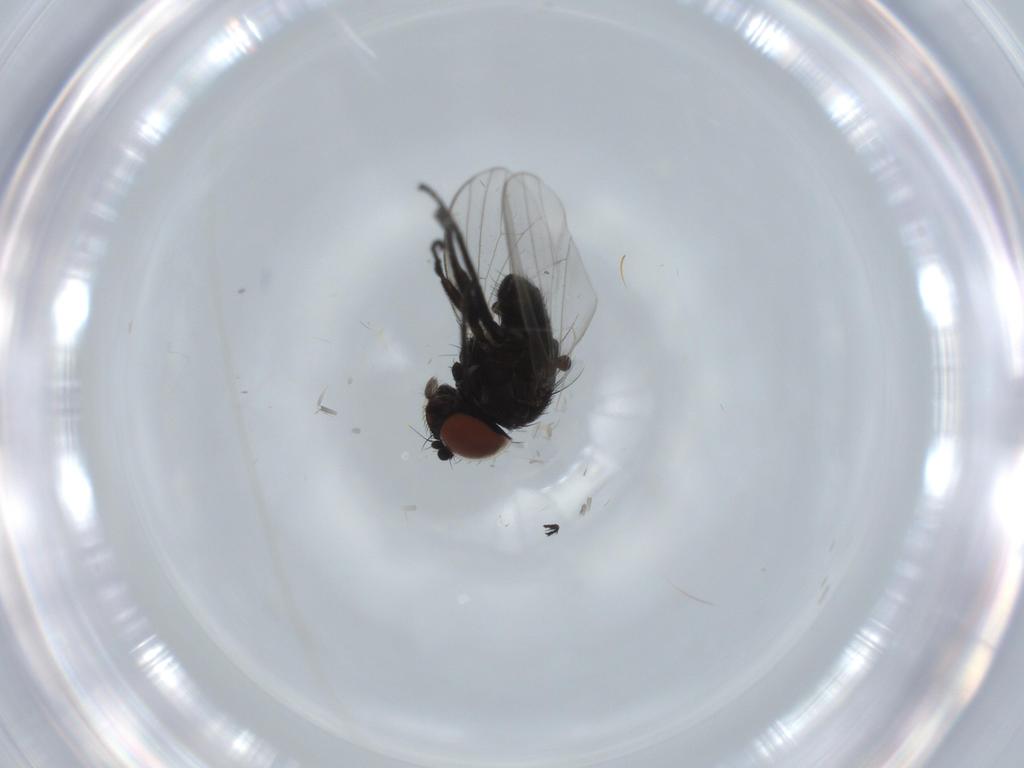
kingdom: Animalia
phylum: Arthropoda
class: Insecta
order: Diptera
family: Milichiidae
